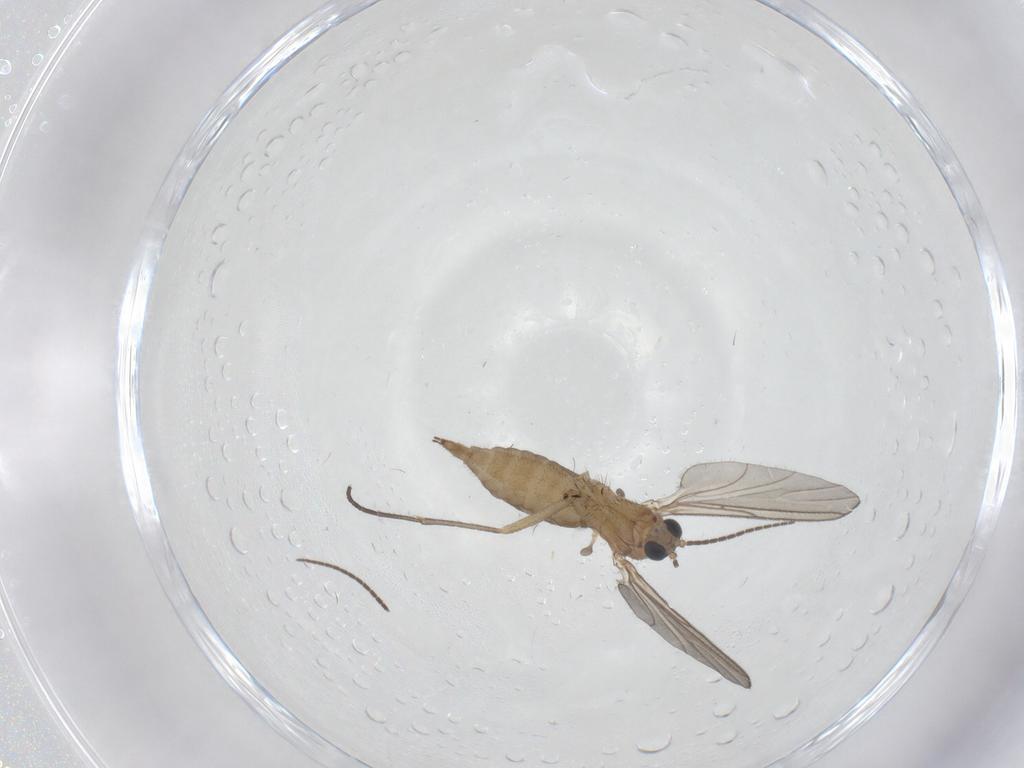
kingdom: Animalia
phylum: Arthropoda
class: Insecta
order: Diptera
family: Sciaridae
